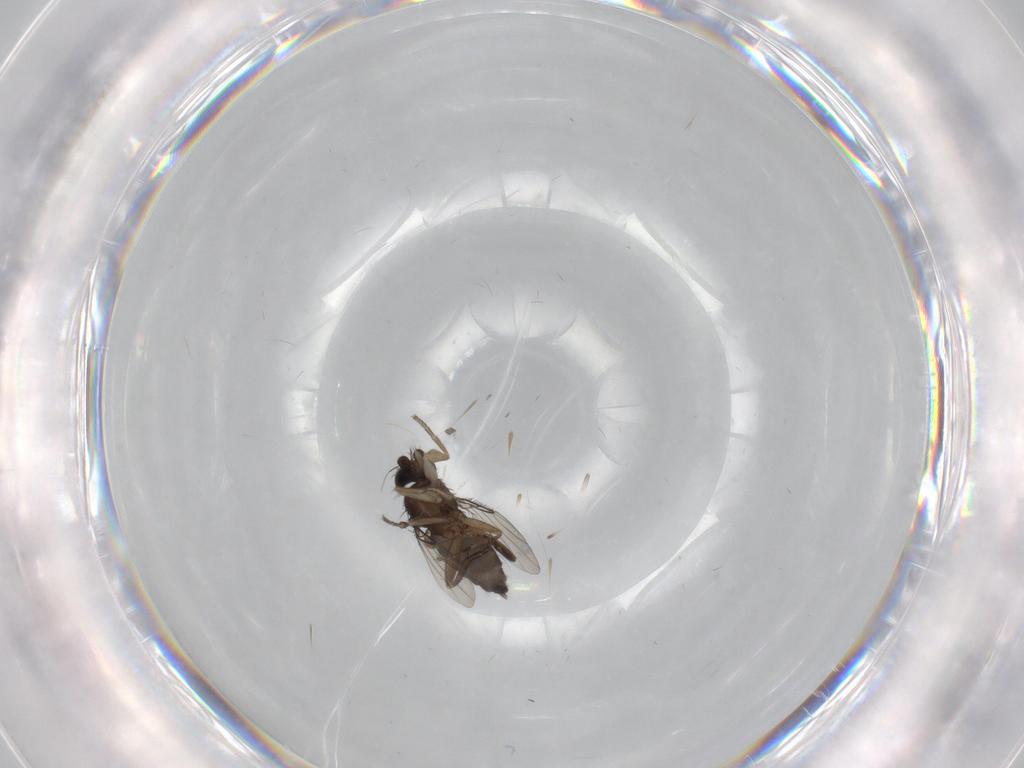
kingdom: Animalia
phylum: Arthropoda
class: Insecta
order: Diptera
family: Phoridae
